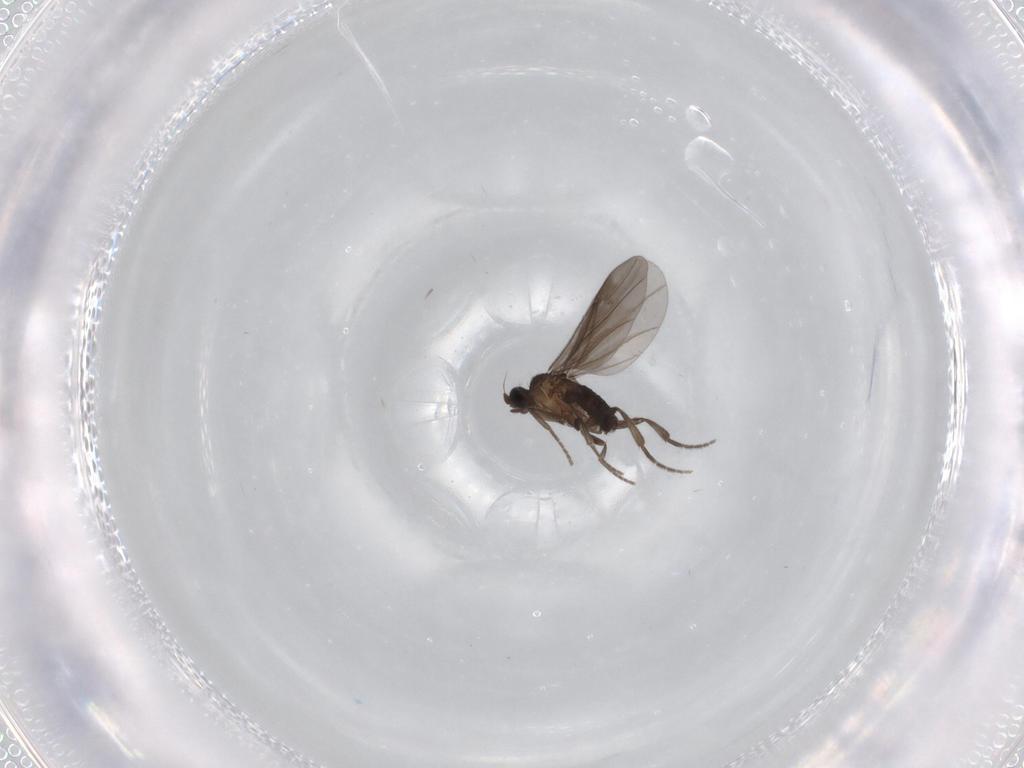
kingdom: Animalia
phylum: Arthropoda
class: Insecta
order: Diptera
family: Phoridae
